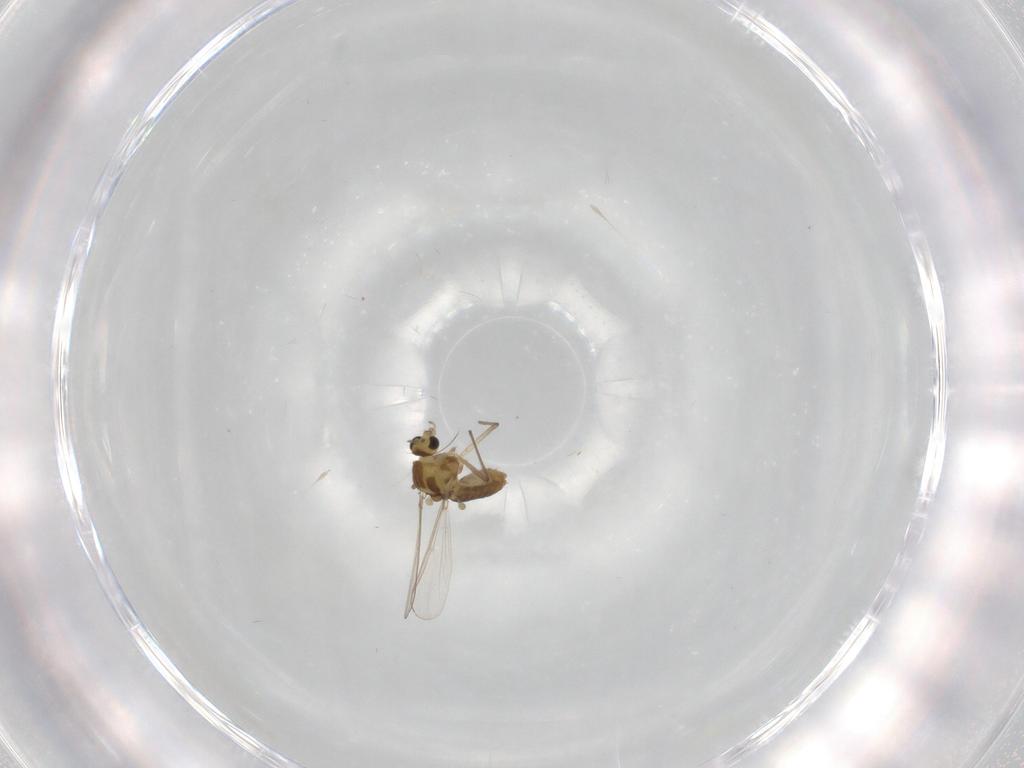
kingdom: Animalia
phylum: Arthropoda
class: Insecta
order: Diptera
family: Chironomidae
